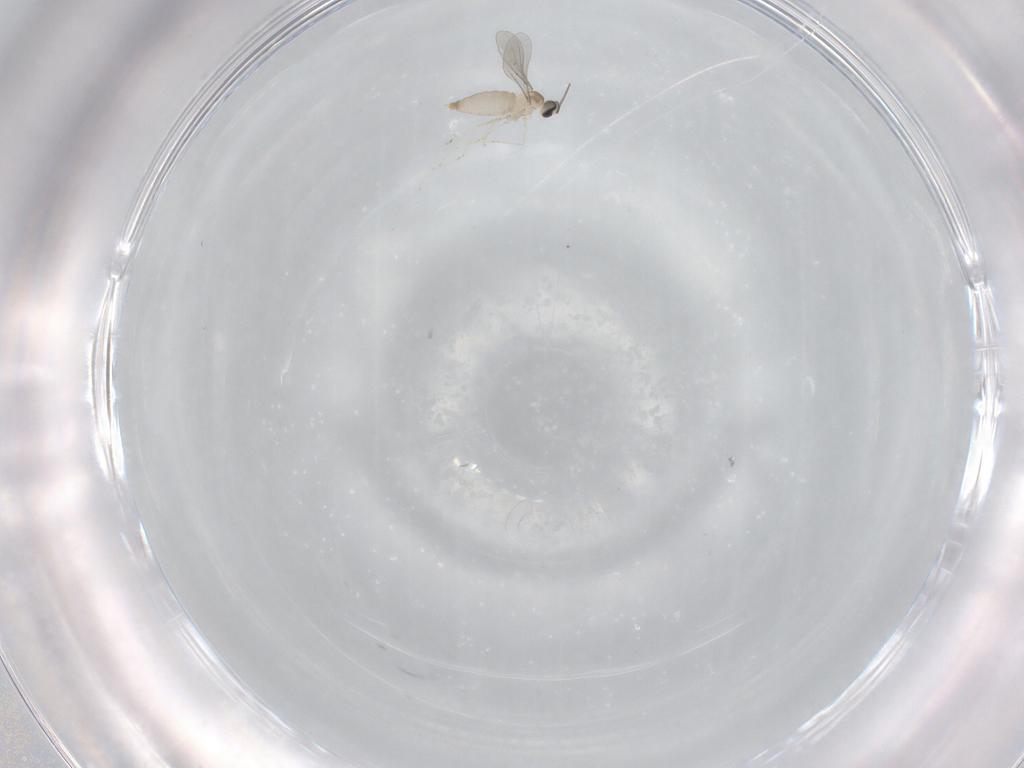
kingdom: Animalia
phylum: Arthropoda
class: Insecta
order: Diptera
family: Cecidomyiidae
